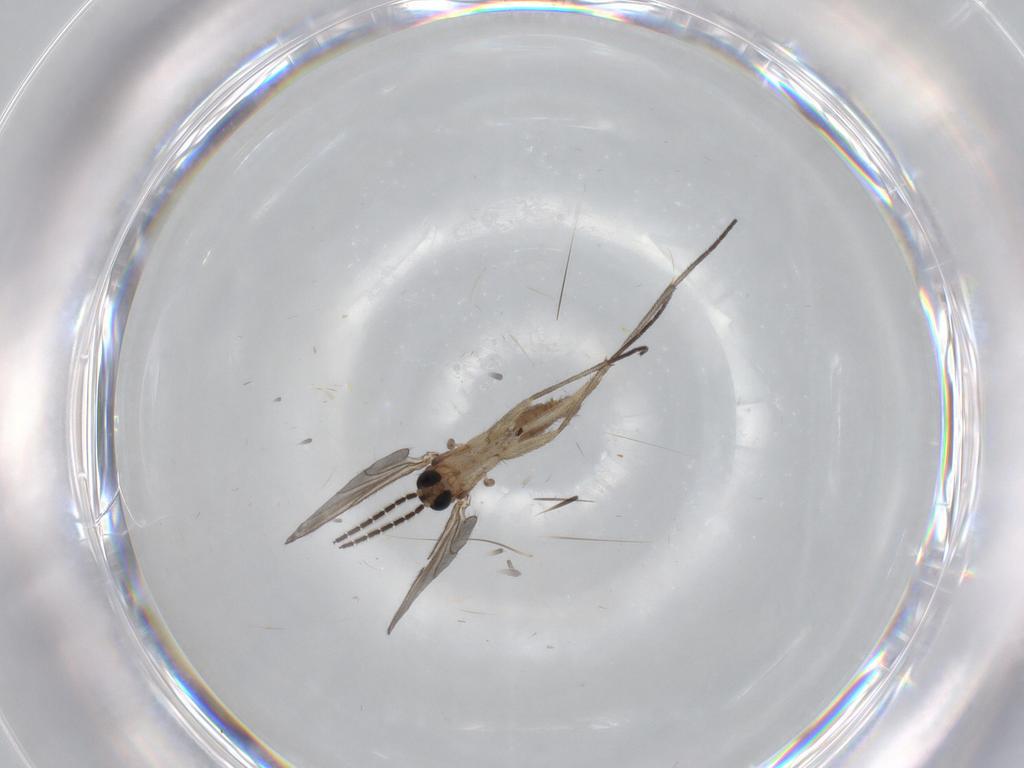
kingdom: Animalia
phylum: Arthropoda
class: Insecta
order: Diptera
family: Sciaridae
